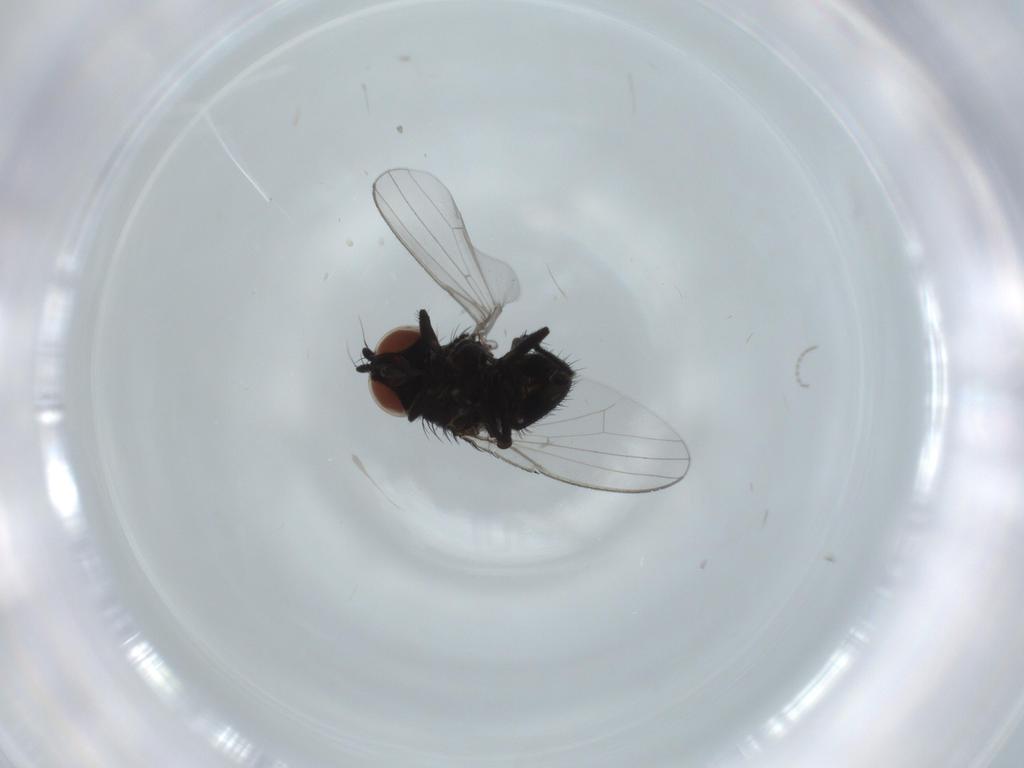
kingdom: Animalia
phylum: Arthropoda
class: Insecta
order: Diptera
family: Milichiidae
